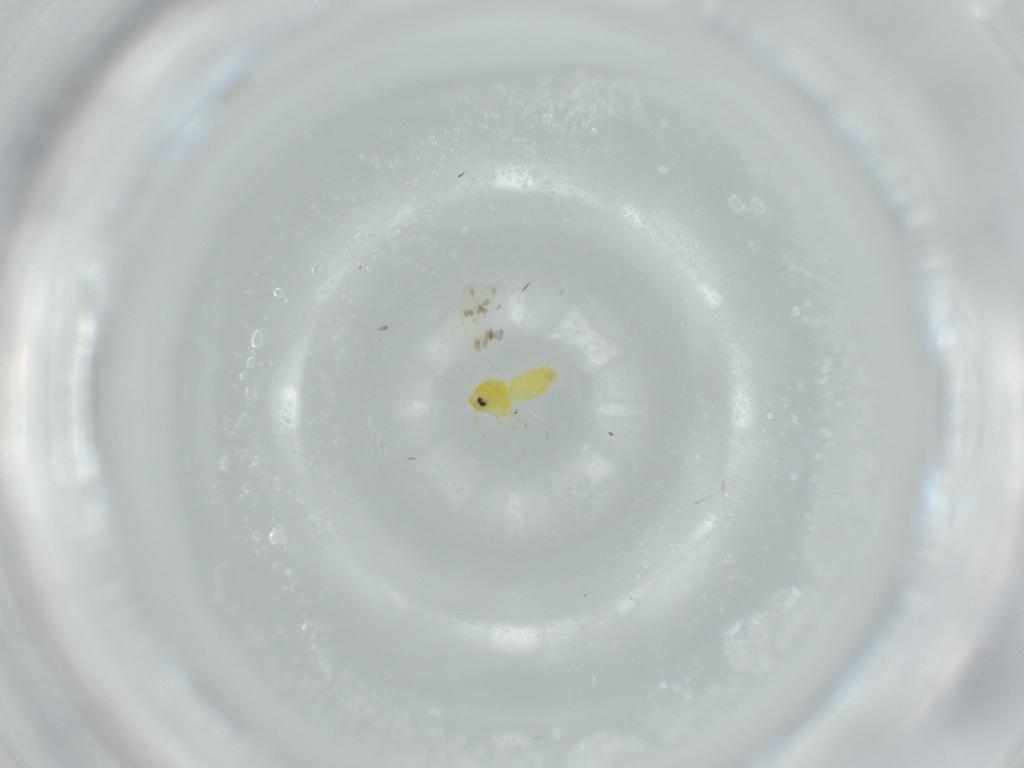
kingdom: Animalia
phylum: Arthropoda
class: Insecta
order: Hemiptera
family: Aleyrodidae
